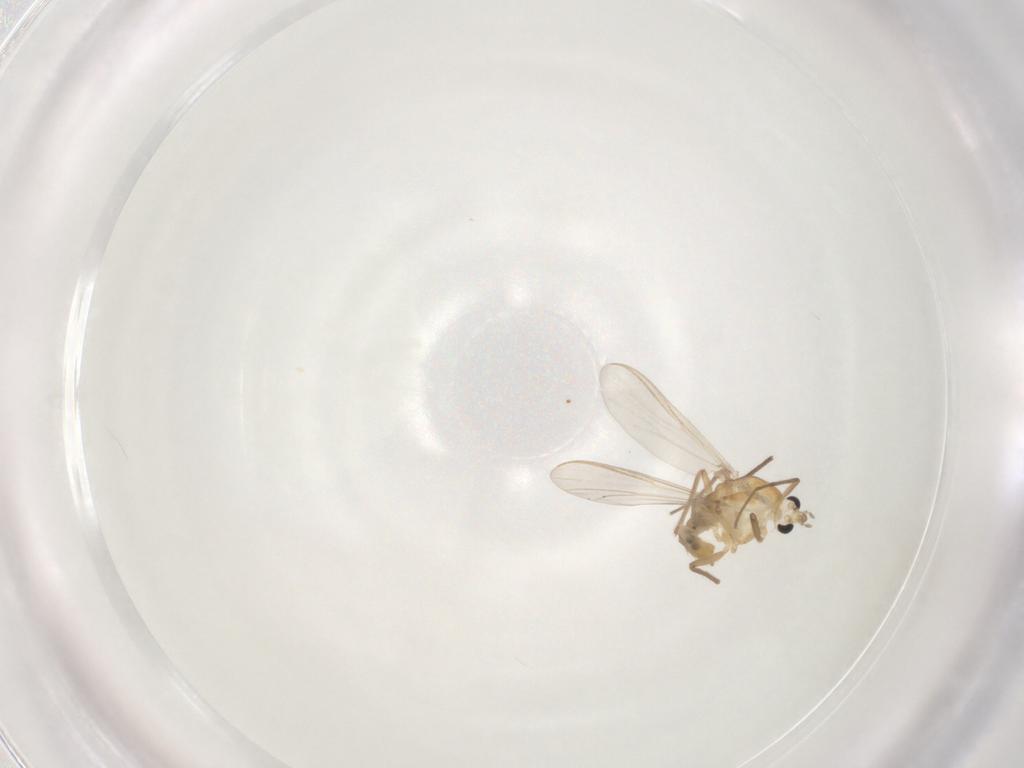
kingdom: Animalia
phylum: Arthropoda
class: Insecta
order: Diptera
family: Chironomidae
